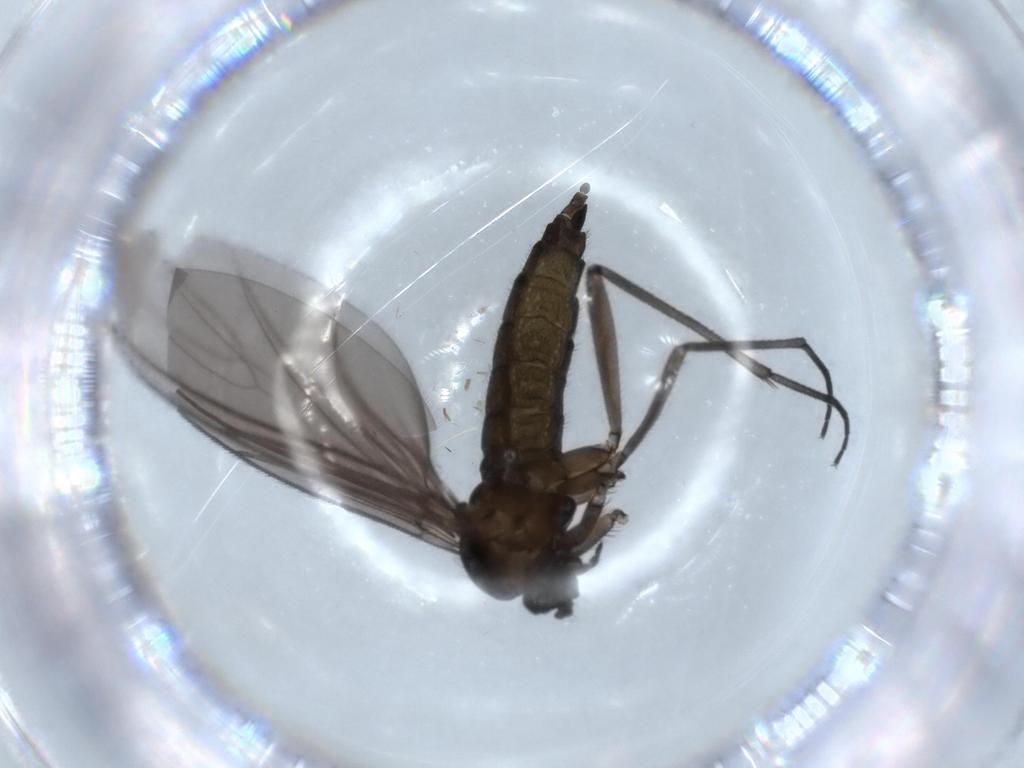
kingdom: Animalia
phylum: Arthropoda
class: Insecta
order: Diptera
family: Sciaridae
